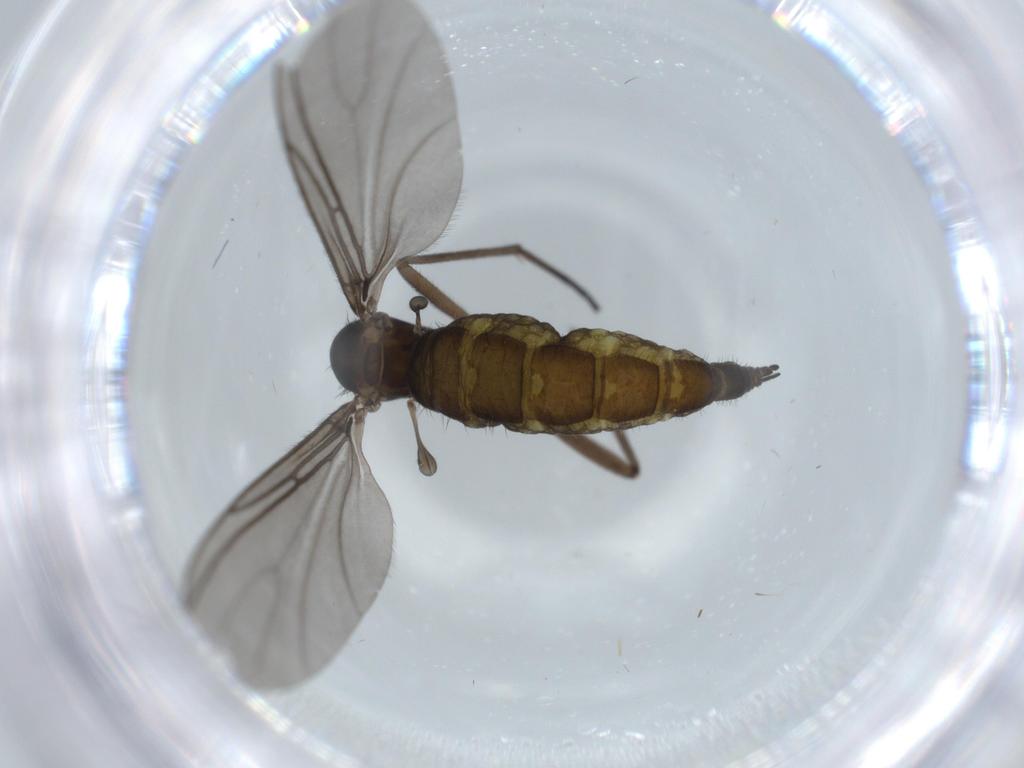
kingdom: Animalia
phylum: Arthropoda
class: Insecta
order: Diptera
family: Sciaridae
